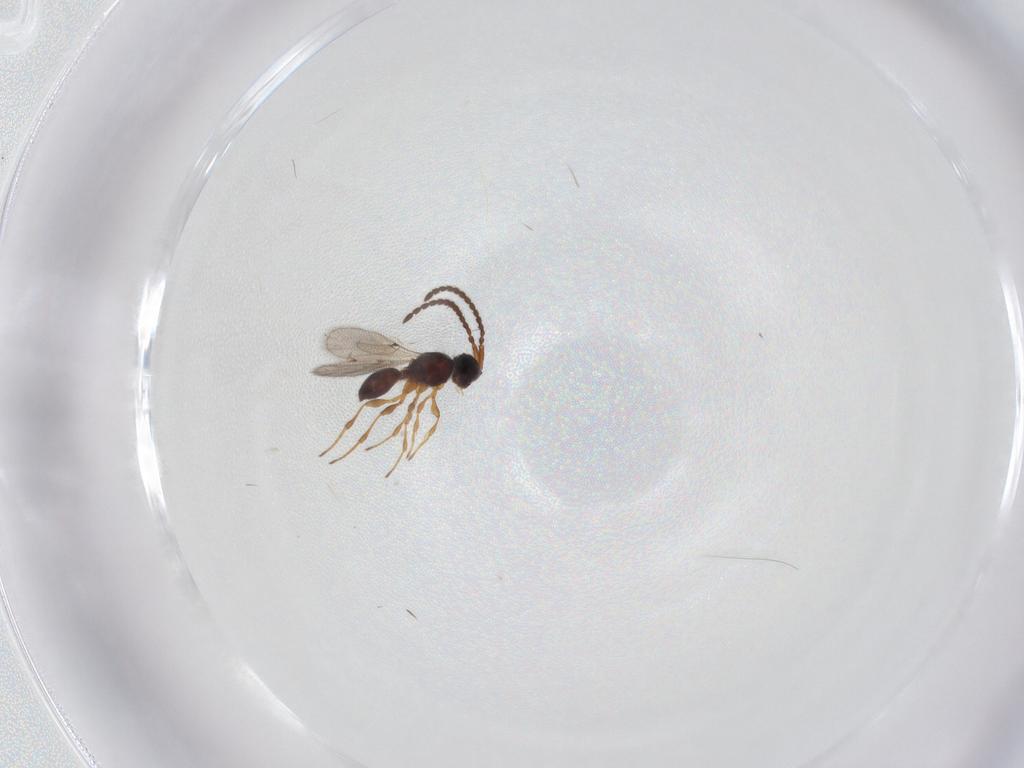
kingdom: Animalia
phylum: Arthropoda
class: Insecta
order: Hymenoptera
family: Diapriidae
